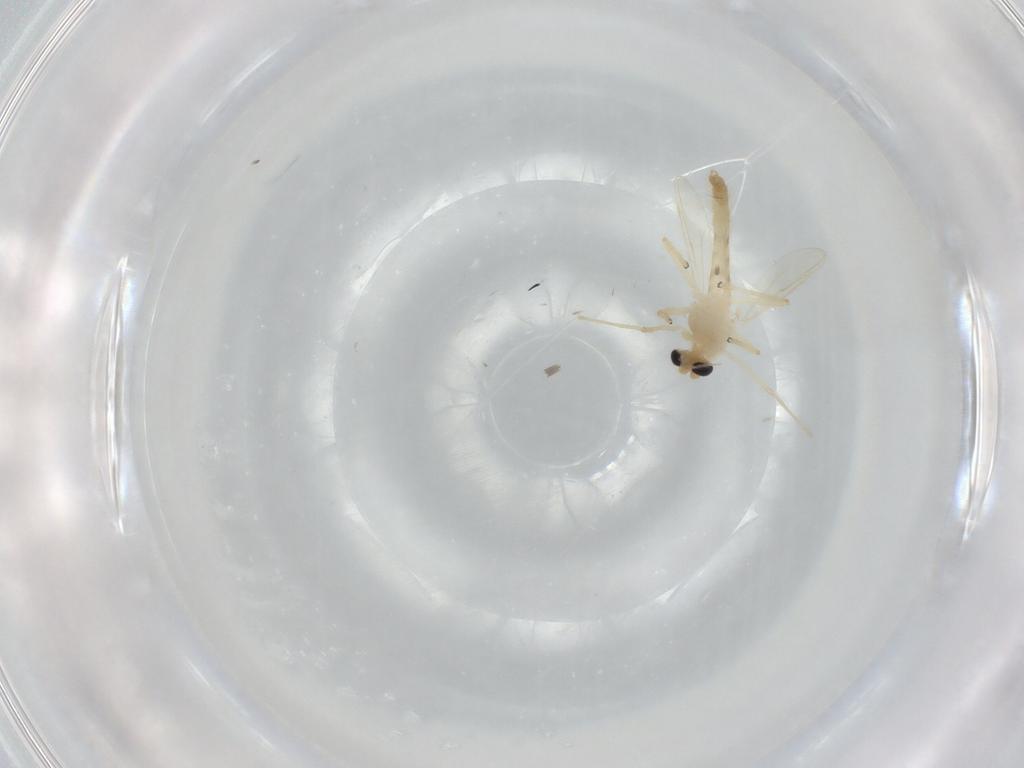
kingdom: Animalia
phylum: Arthropoda
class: Insecta
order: Diptera
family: Chironomidae
